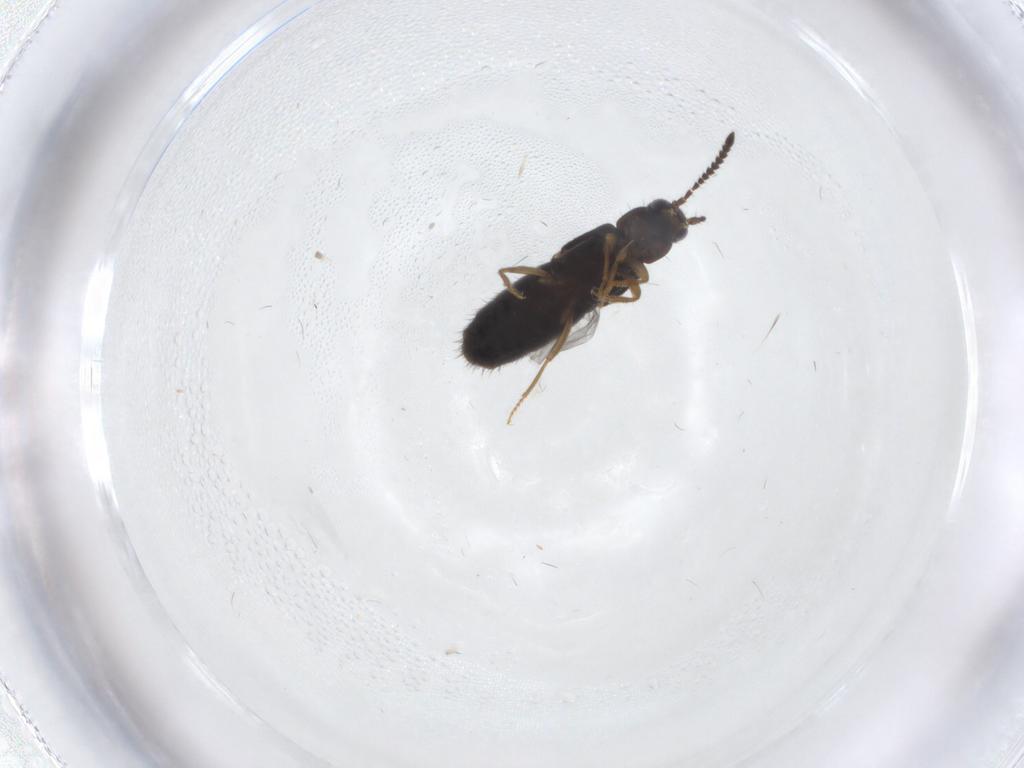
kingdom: Animalia
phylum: Arthropoda
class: Insecta
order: Coleoptera
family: Staphylinidae
